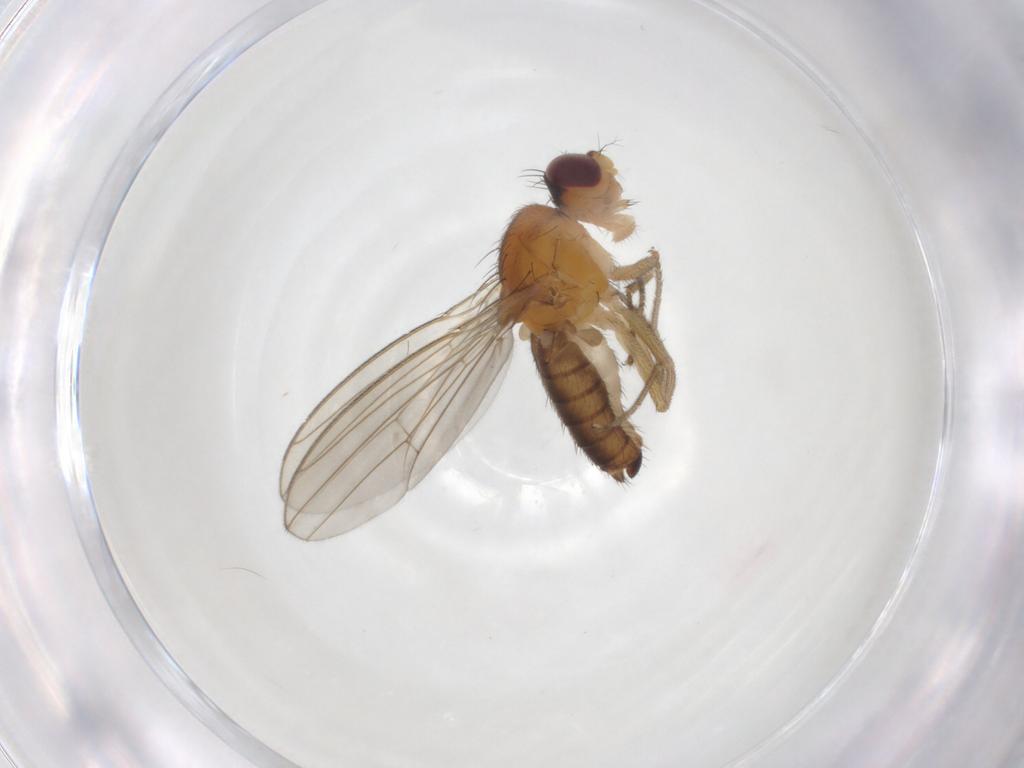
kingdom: Animalia
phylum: Arthropoda
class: Insecta
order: Diptera
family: Drosophilidae
